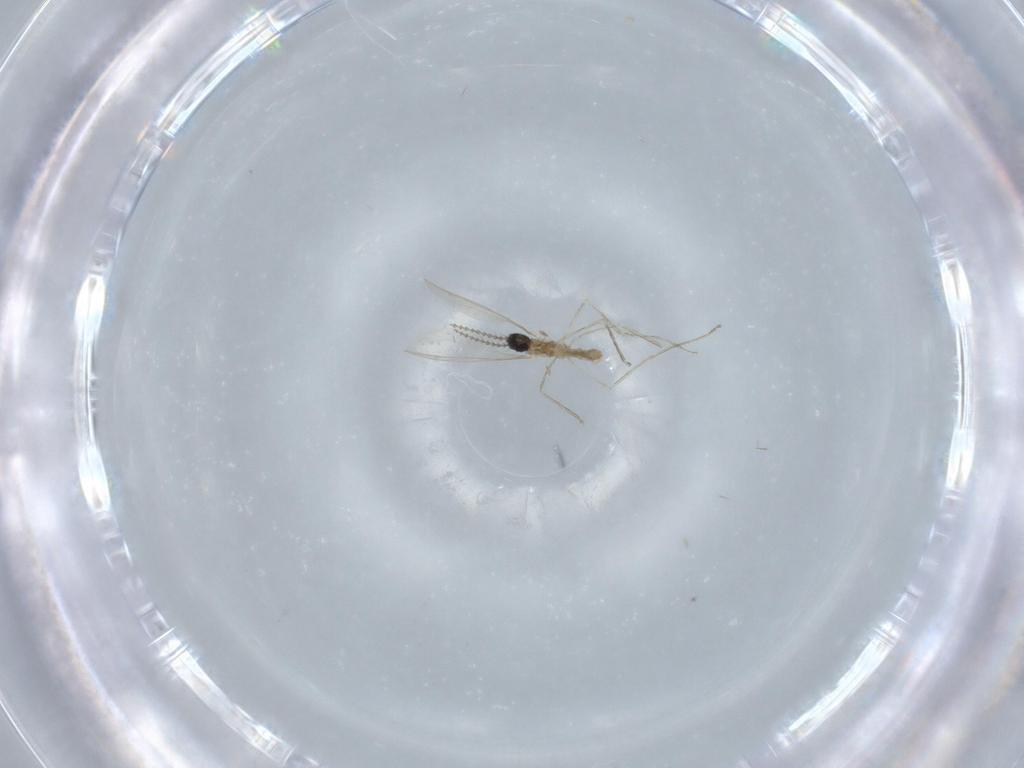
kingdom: Animalia
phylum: Arthropoda
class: Insecta
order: Diptera
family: Cecidomyiidae
